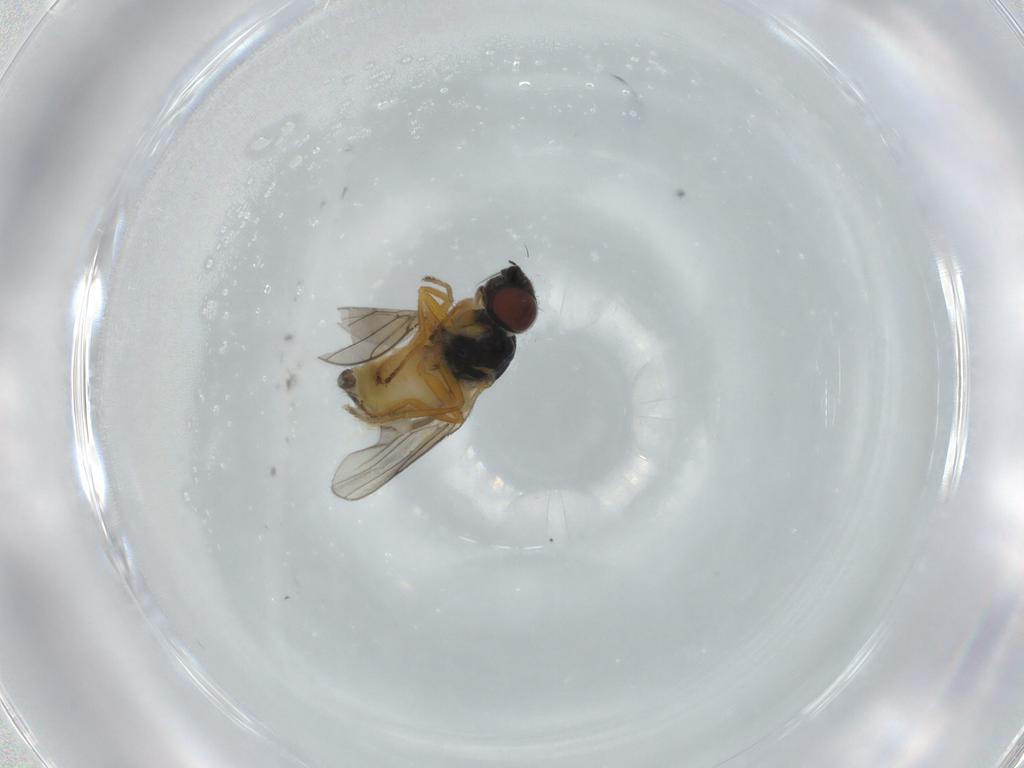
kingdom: Animalia
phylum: Arthropoda
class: Insecta
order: Diptera
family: Chloropidae
